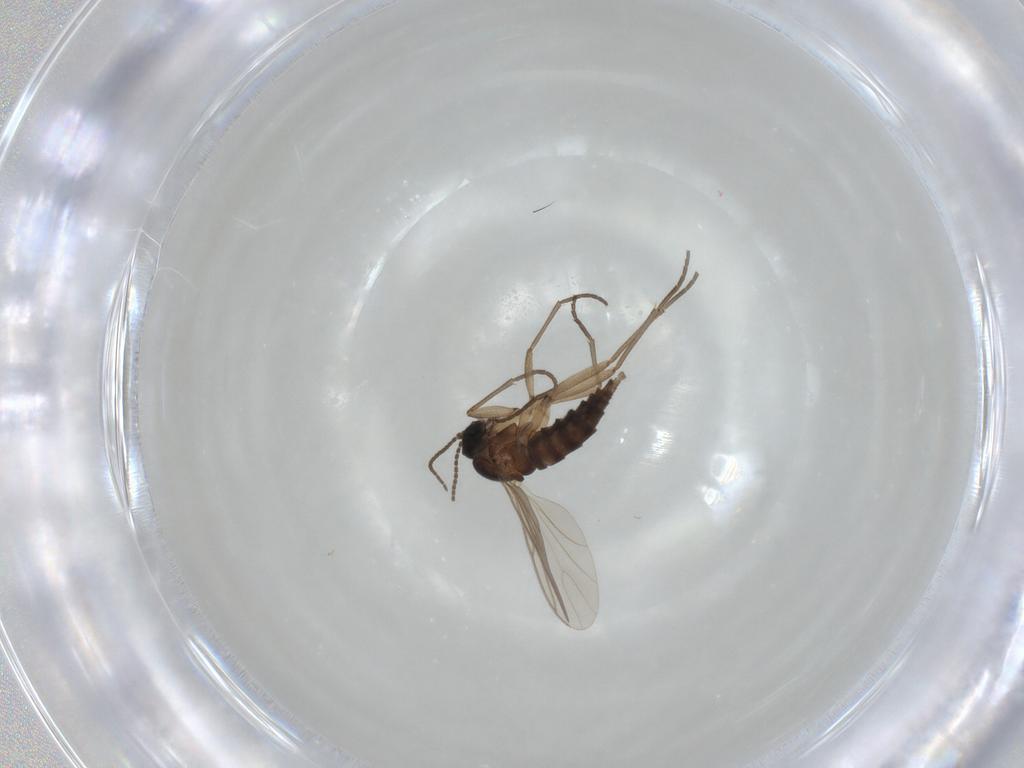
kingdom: Animalia
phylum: Arthropoda
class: Insecta
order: Diptera
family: Sciaridae
